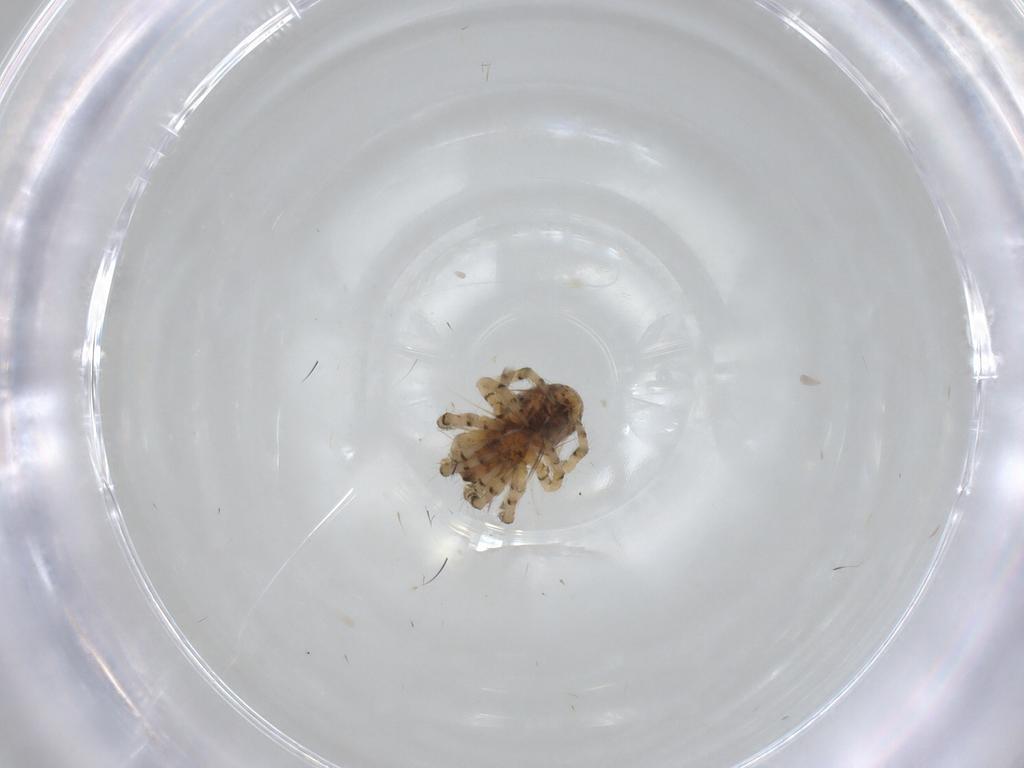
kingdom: Animalia
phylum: Arthropoda
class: Arachnida
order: Araneae
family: Araneidae
